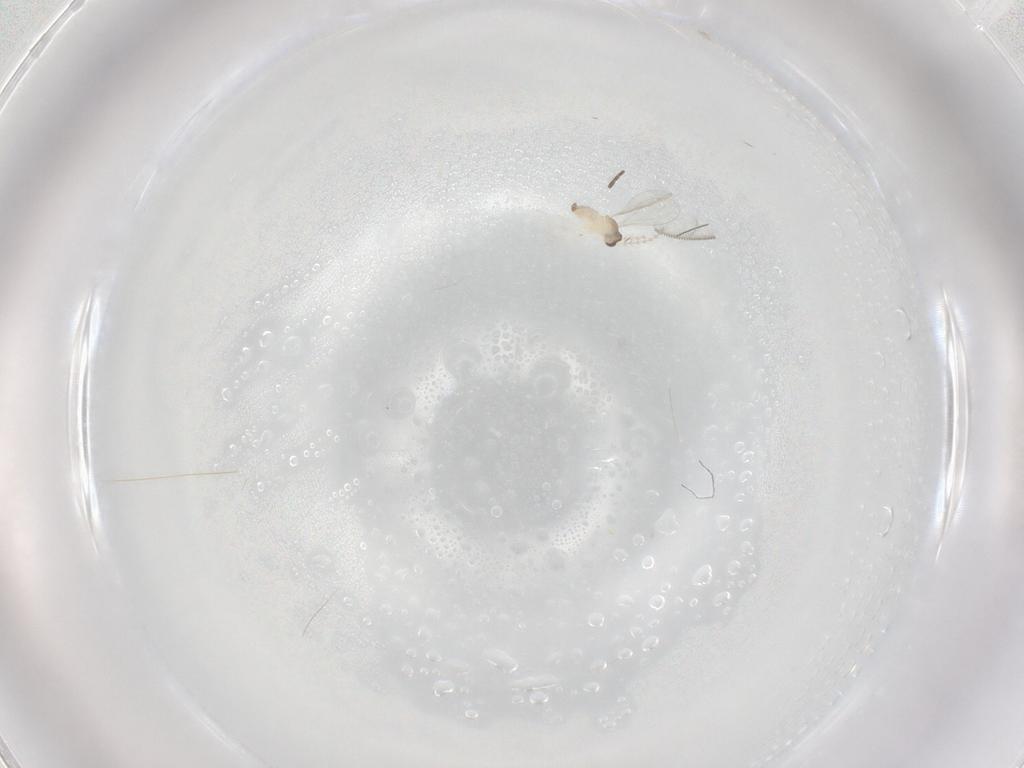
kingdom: Animalia
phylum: Arthropoda
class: Insecta
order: Diptera
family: Cecidomyiidae
